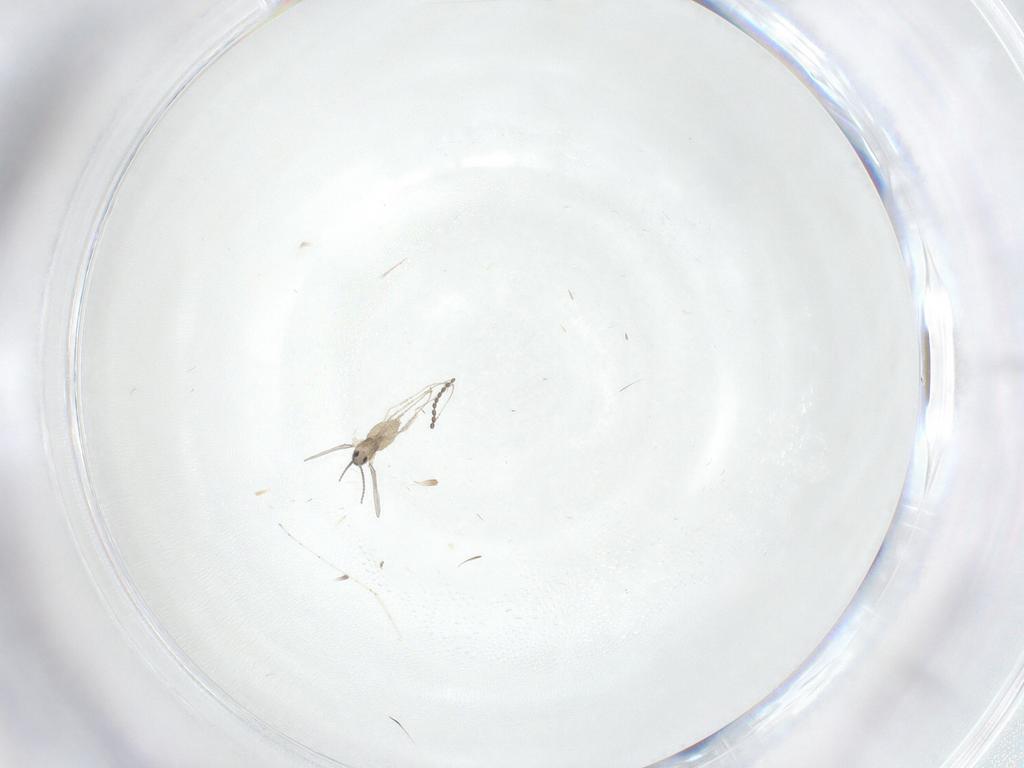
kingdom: Animalia
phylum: Arthropoda
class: Insecta
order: Diptera
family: Cecidomyiidae
